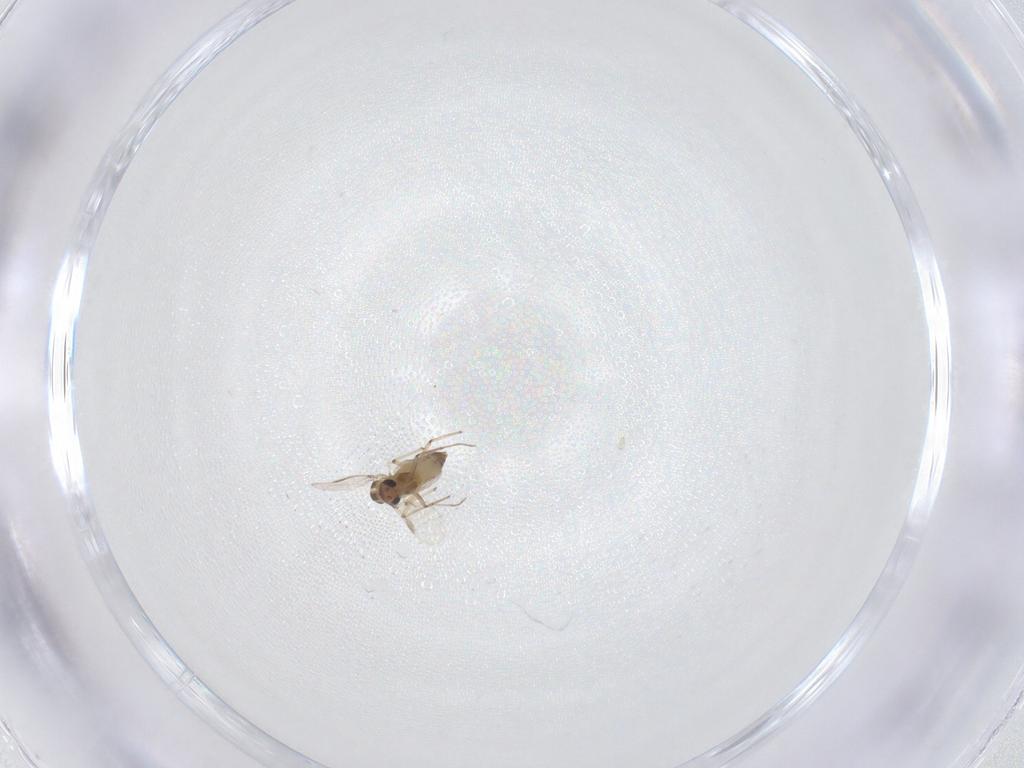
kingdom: Animalia
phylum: Arthropoda
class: Insecta
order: Diptera
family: Chironomidae
